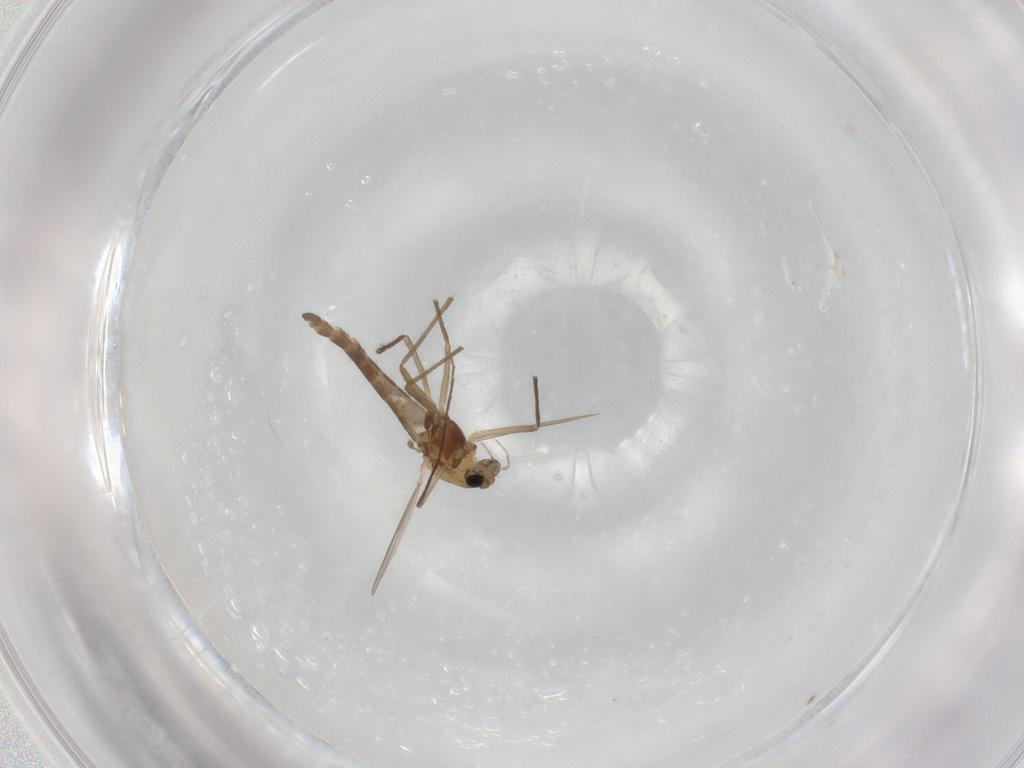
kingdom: Animalia
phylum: Arthropoda
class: Insecta
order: Diptera
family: Chironomidae
